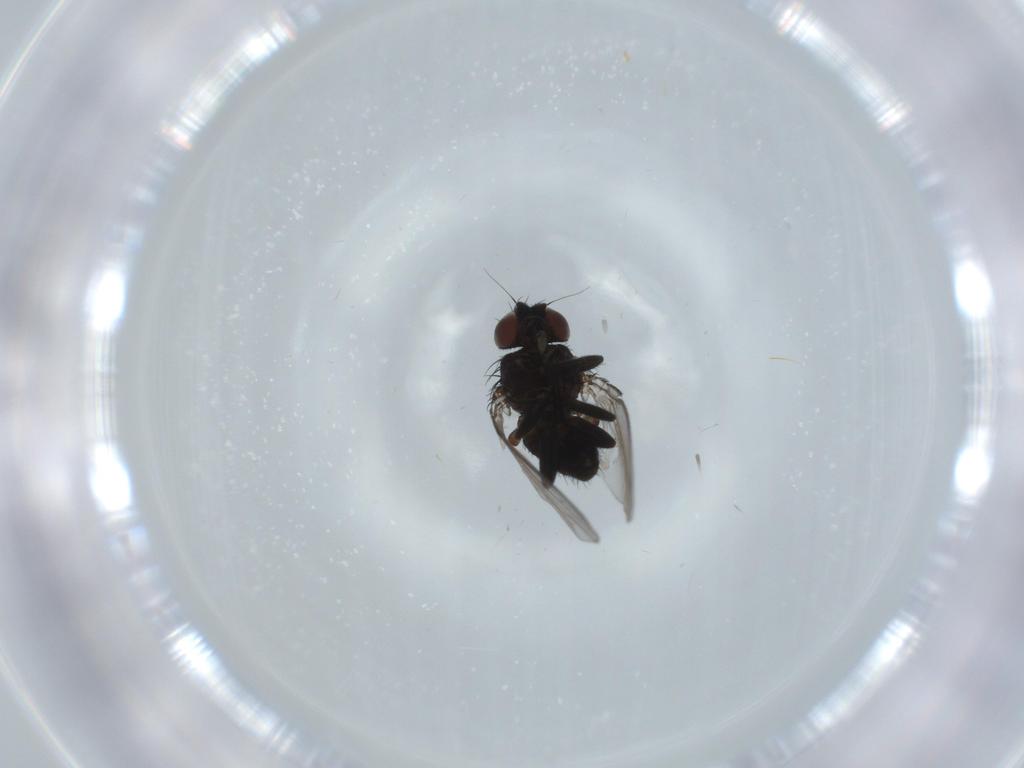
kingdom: Animalia
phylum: Arthropoda
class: Insecta
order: Diptera
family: Milichiidae
